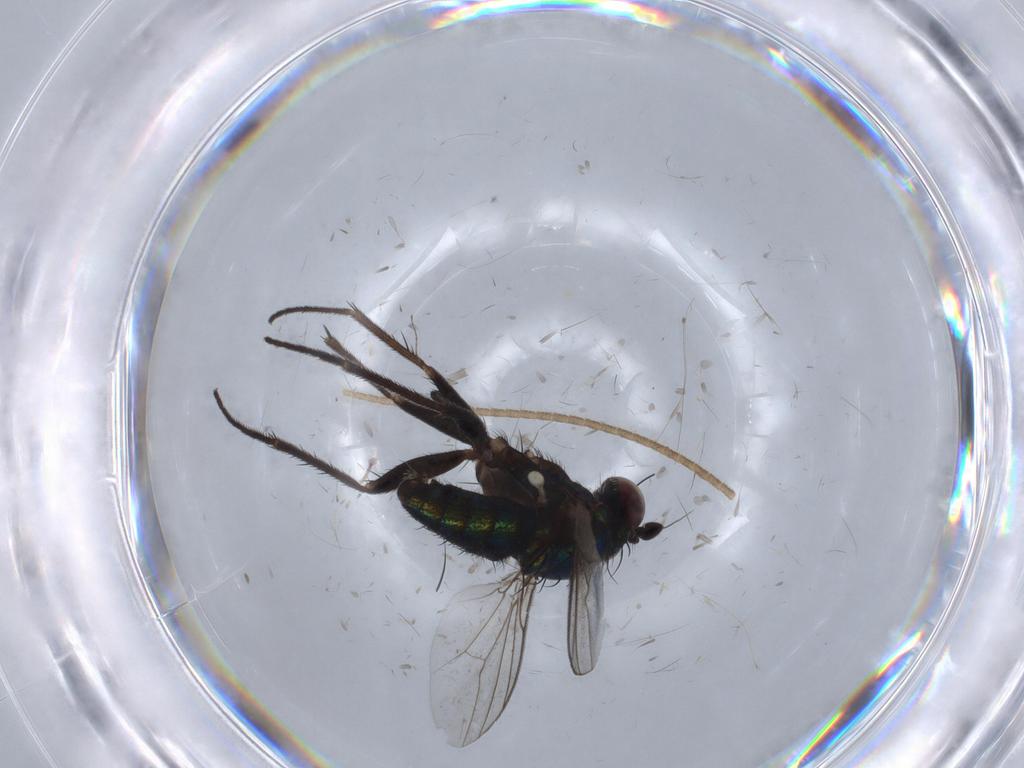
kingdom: Animalia
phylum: Arthropoda
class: Insecta
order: Diptera
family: Dolichopodidae
